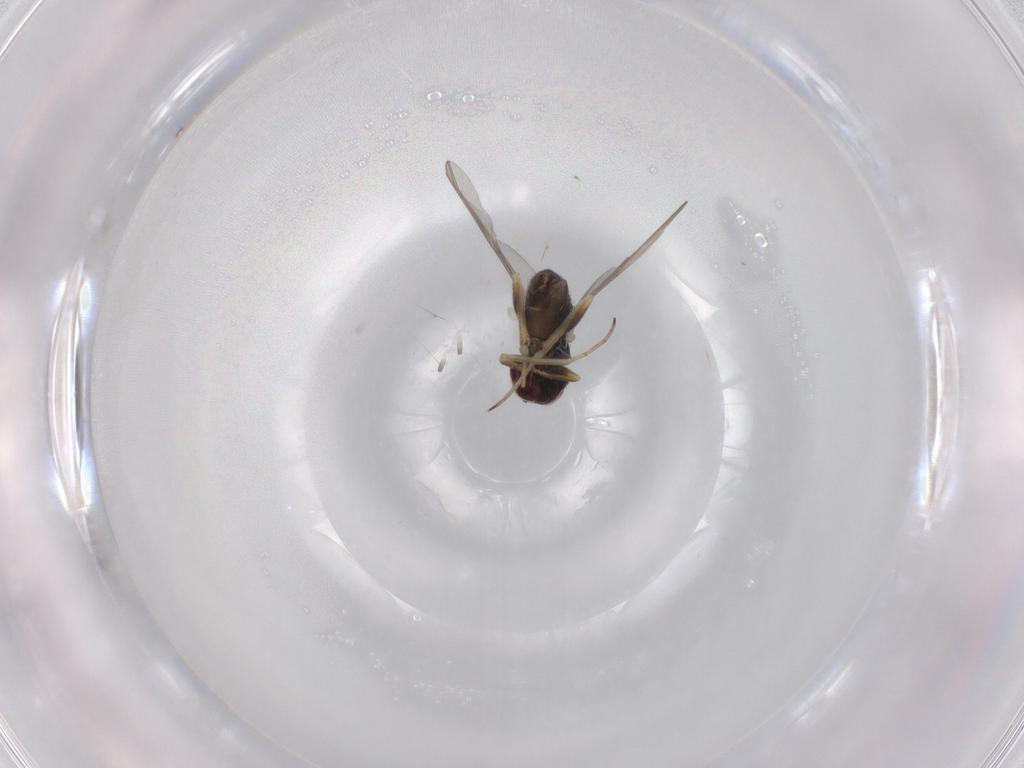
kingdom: Animalia
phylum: Arthropoda
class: Insecta
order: Diptera
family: Dolichopodidae
